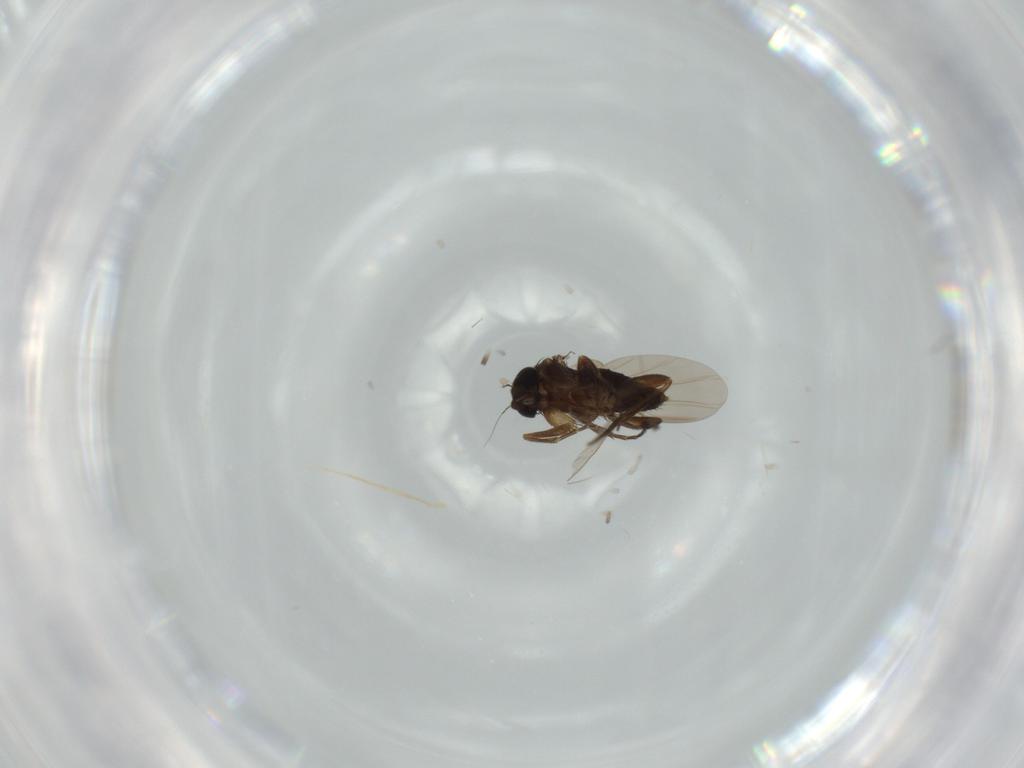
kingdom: Animalia
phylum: Arthropoda
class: Insecta
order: Diptera
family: Phoridae
